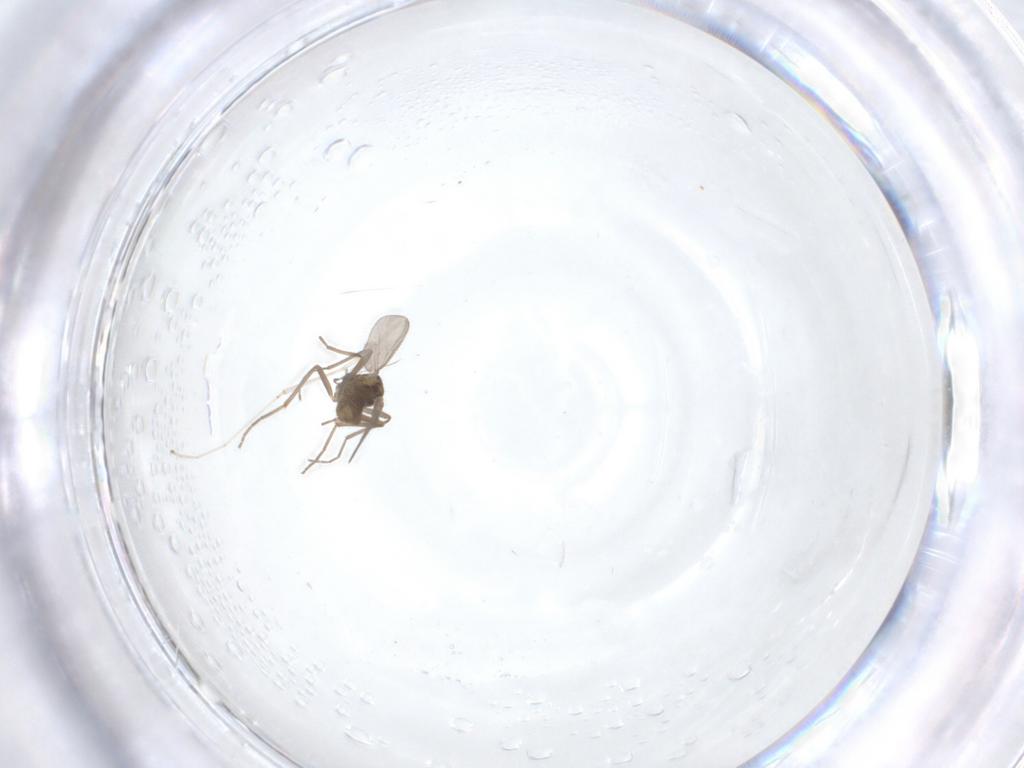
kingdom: Animalia
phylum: Arthropoda
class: Insecta
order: Diptera
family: Chironomidae
